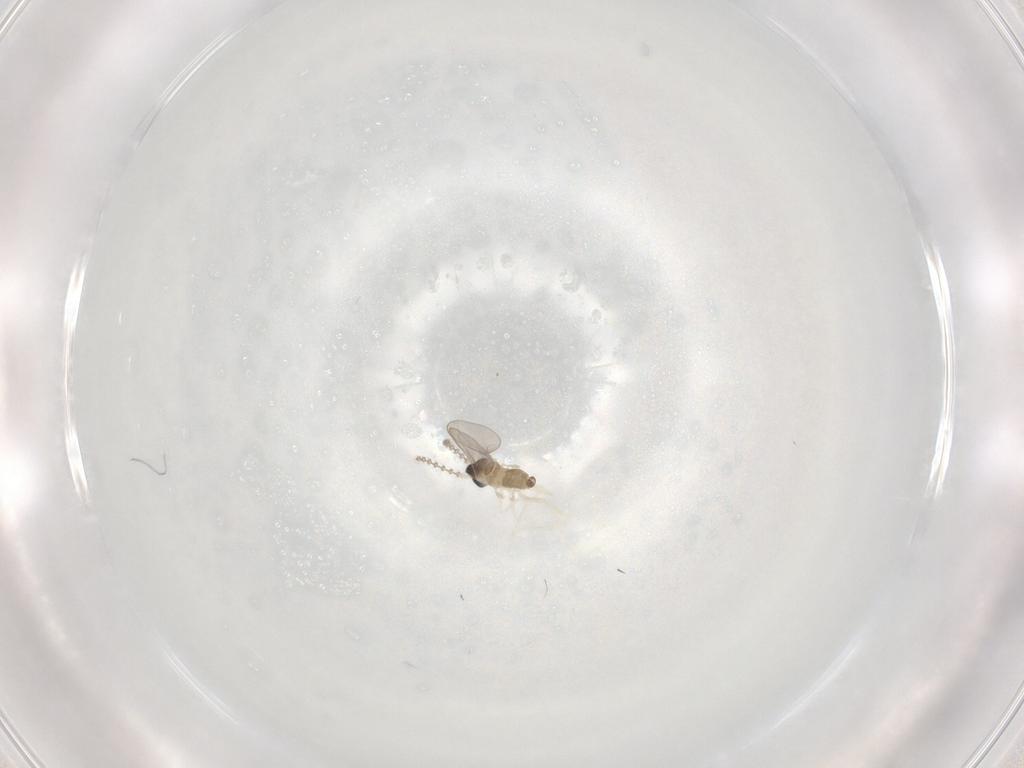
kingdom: Animalia
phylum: Arthropoda
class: Insecta
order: Diptera
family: Cecidomyiidae
